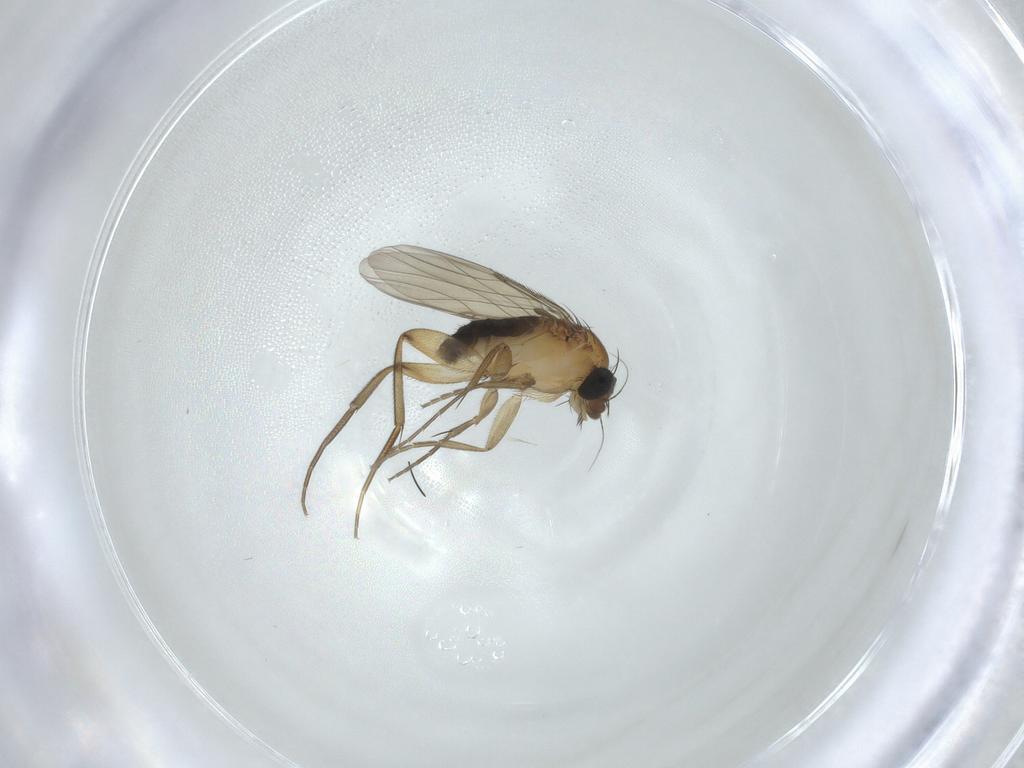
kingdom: Animalia
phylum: Arthropoda
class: Insecta
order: Diptera
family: Phoridae
